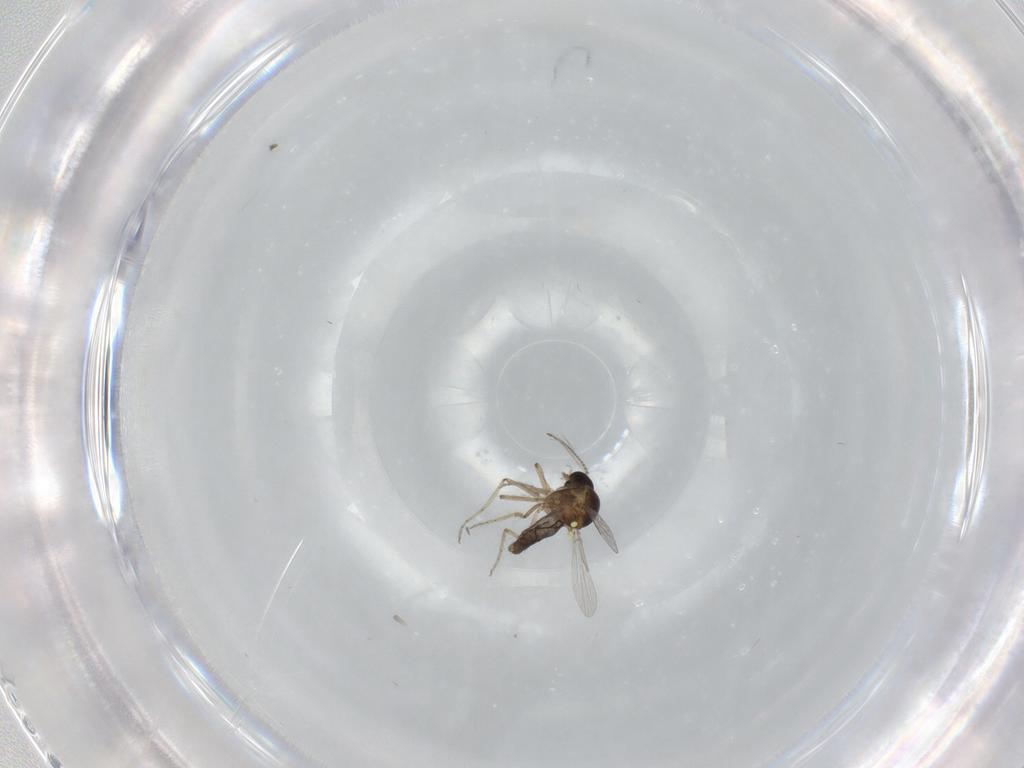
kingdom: Animalia
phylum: Arthropoda
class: Insecta
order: Diptera
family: Ceratopogonidae
